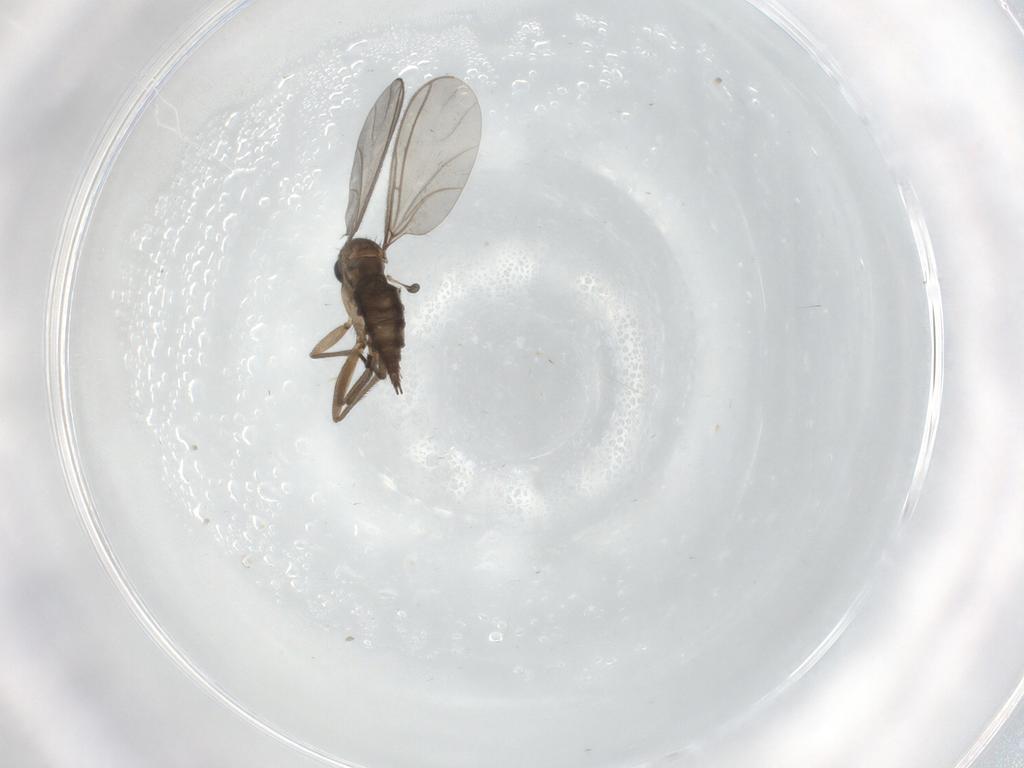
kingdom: Animalia
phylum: Arthropoda
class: Insecta
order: Diptera
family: Sciaridae
